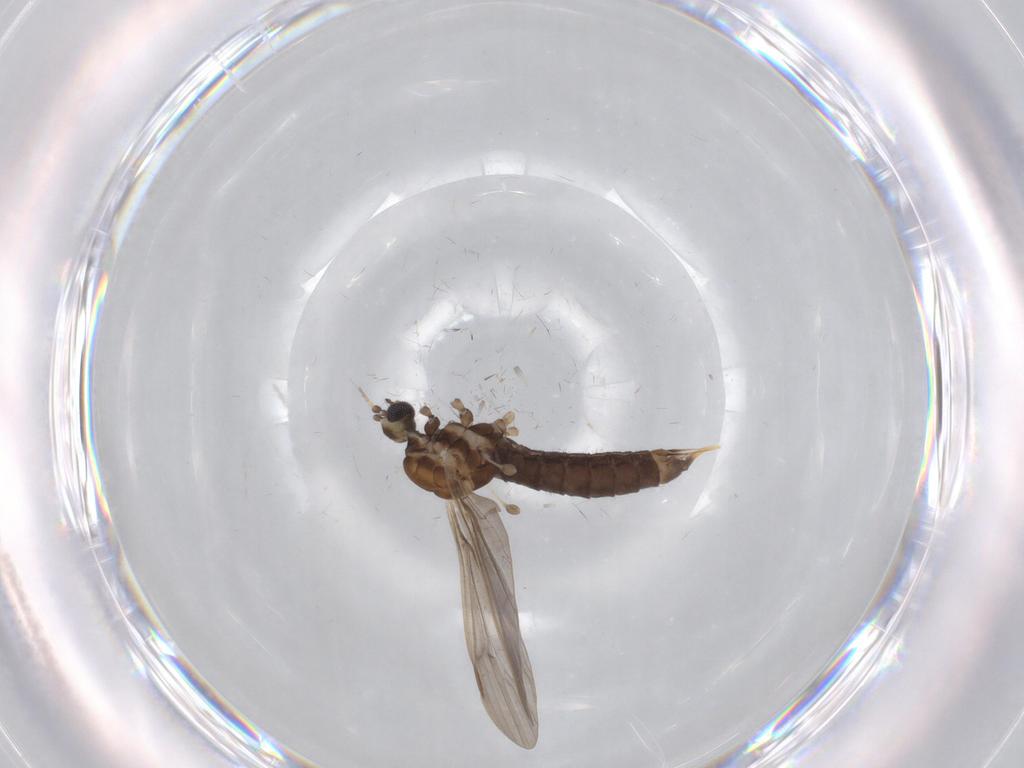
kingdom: Animalia
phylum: Arthropoda
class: Insecta
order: Diptera
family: Limoniidae
